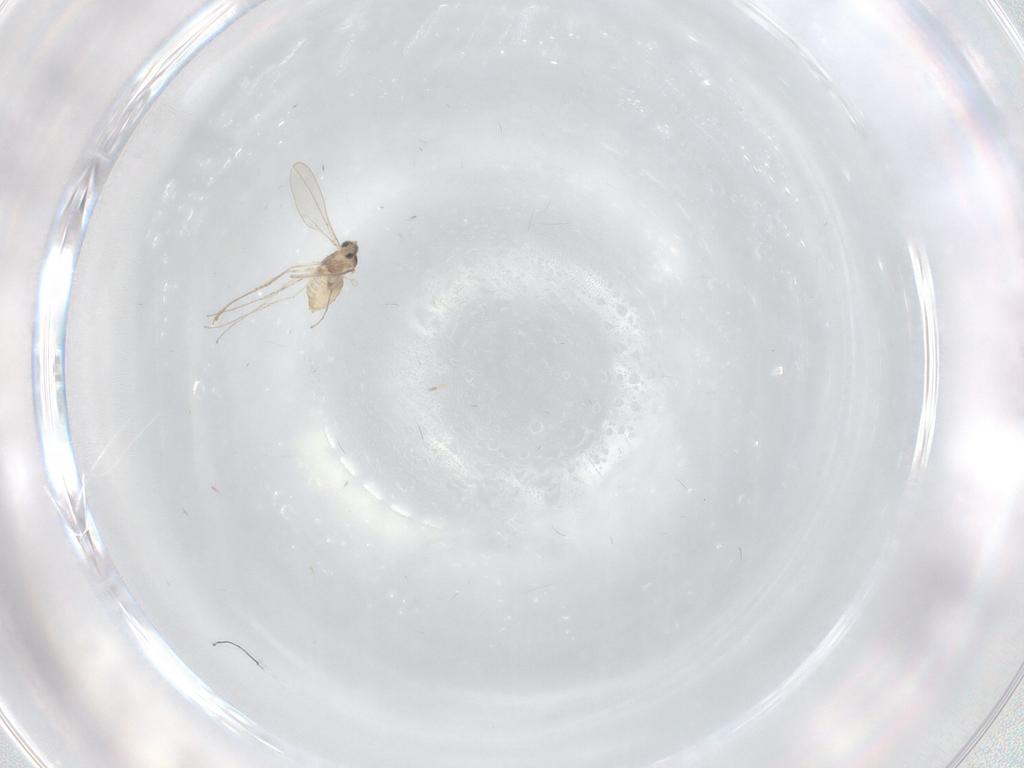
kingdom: Animalia
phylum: Arthropoda
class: Insecta
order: Diptera
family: Cecidomyiidae
